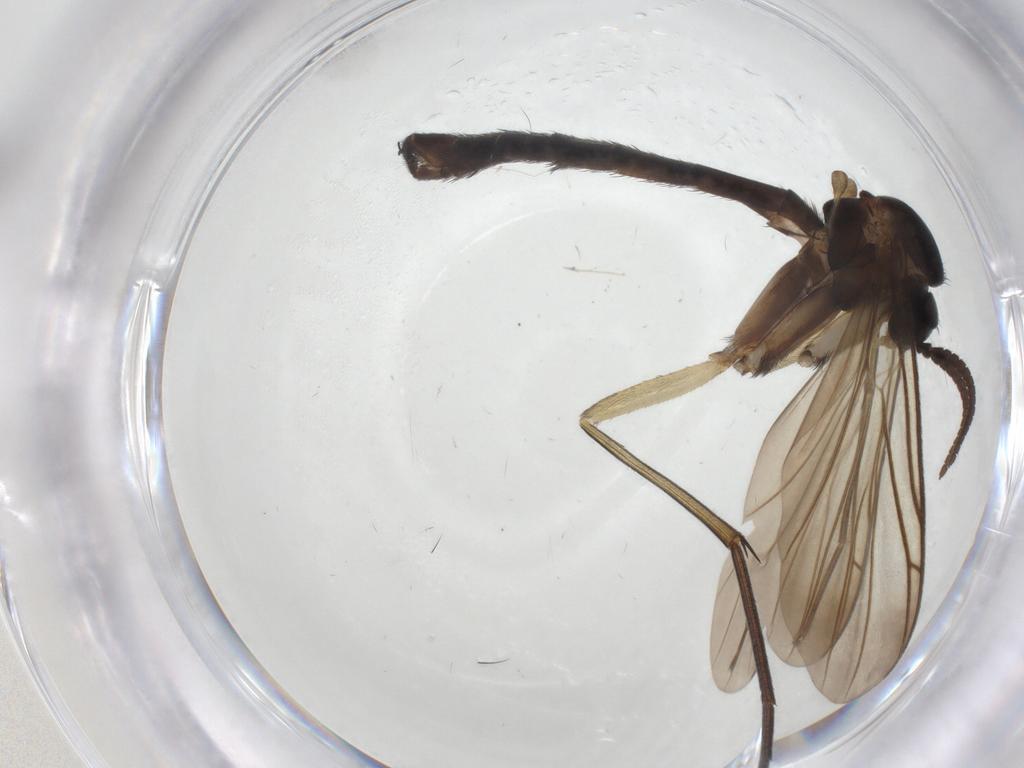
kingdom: Animalia
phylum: Arthropoda
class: Insecta
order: Diptera
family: Keroplatidae
